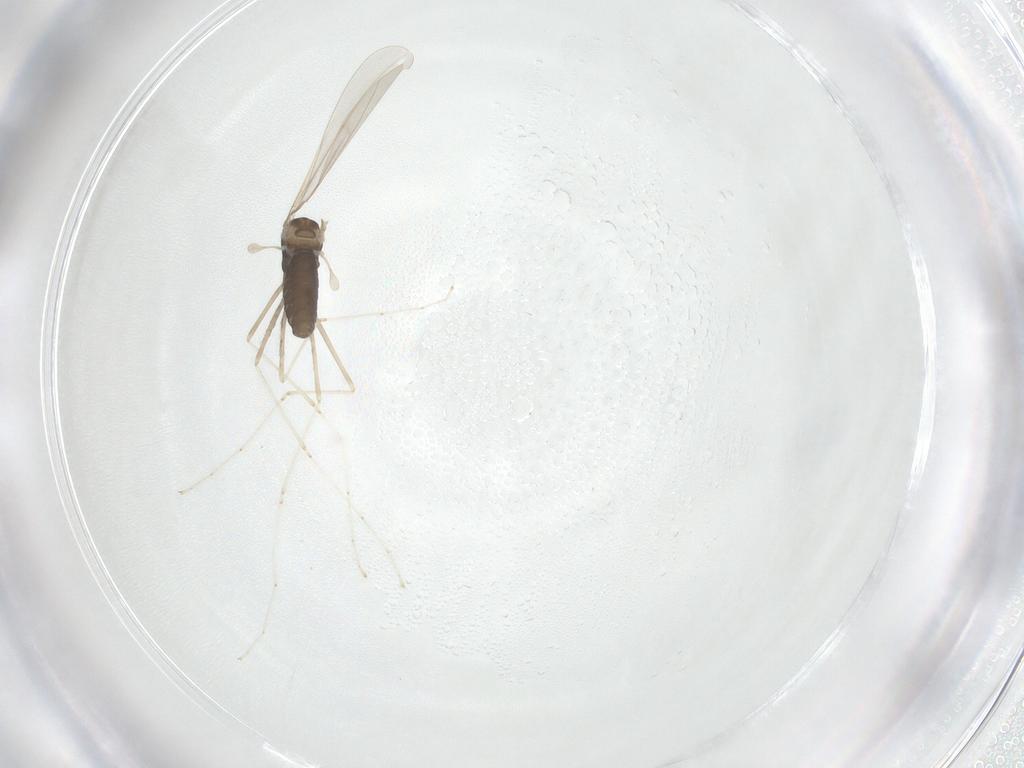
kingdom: Animalia
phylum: Arthropoda
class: Insecta
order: Diptera
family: Cecidomyiidae
